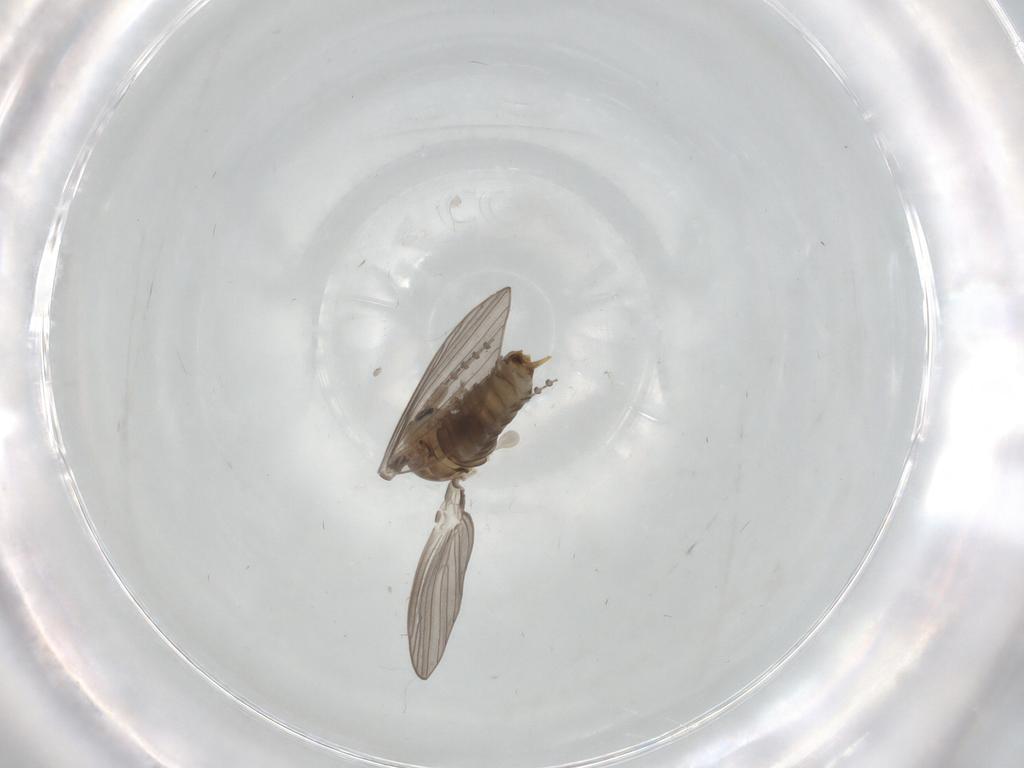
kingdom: Animalia
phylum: Arthropoda
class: Insecta
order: Diptera
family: Psychodidae
